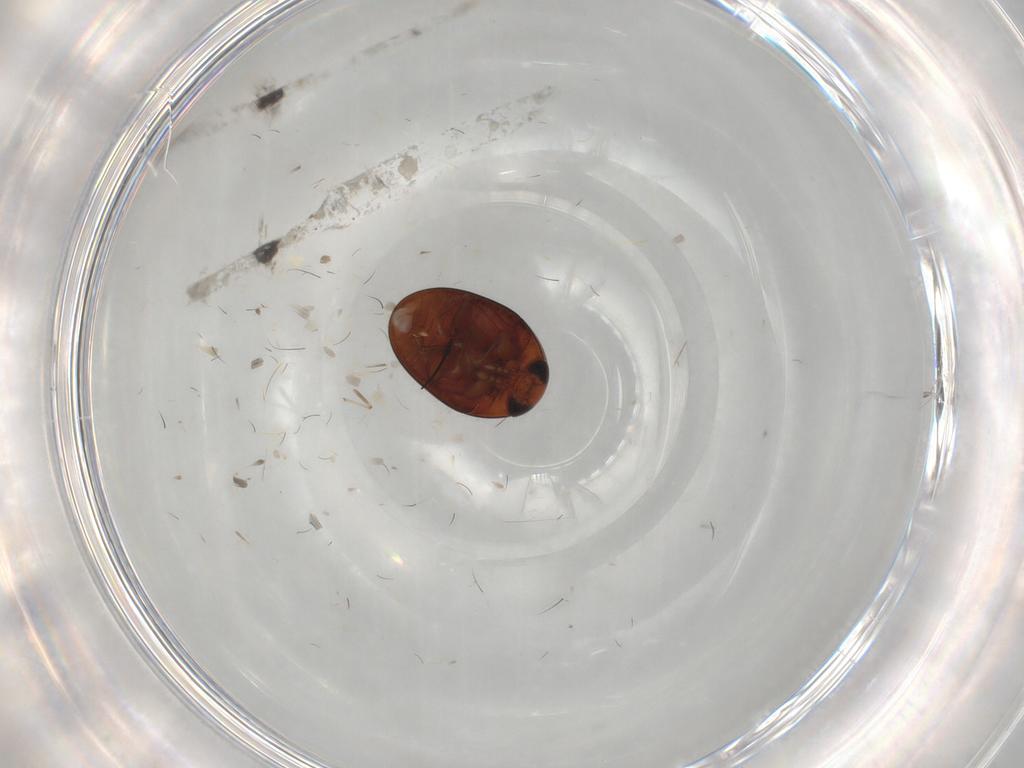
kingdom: Animalia
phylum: Arthropoda
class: Insecta
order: Coleoptera
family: Phalacridae
